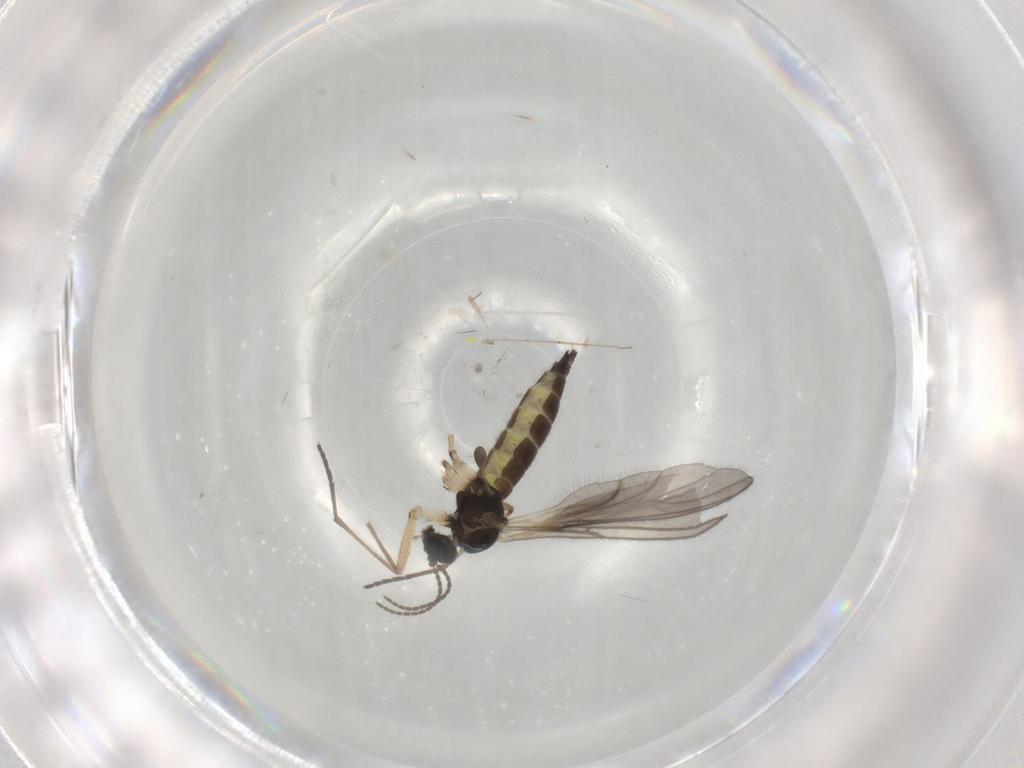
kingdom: Animalia
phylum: Arthropoda
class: Insecta
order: Diptera
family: Sciaridae
